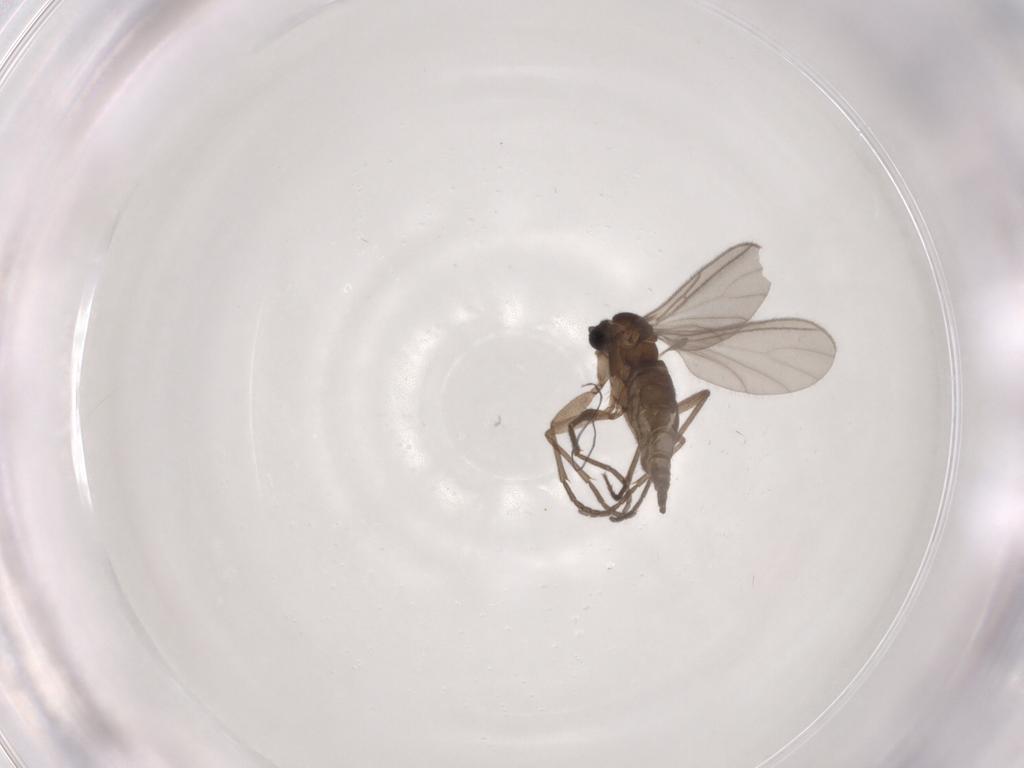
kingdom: Animalia
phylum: Arthropoda
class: Insecta
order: Diptera
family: Sciaridae
